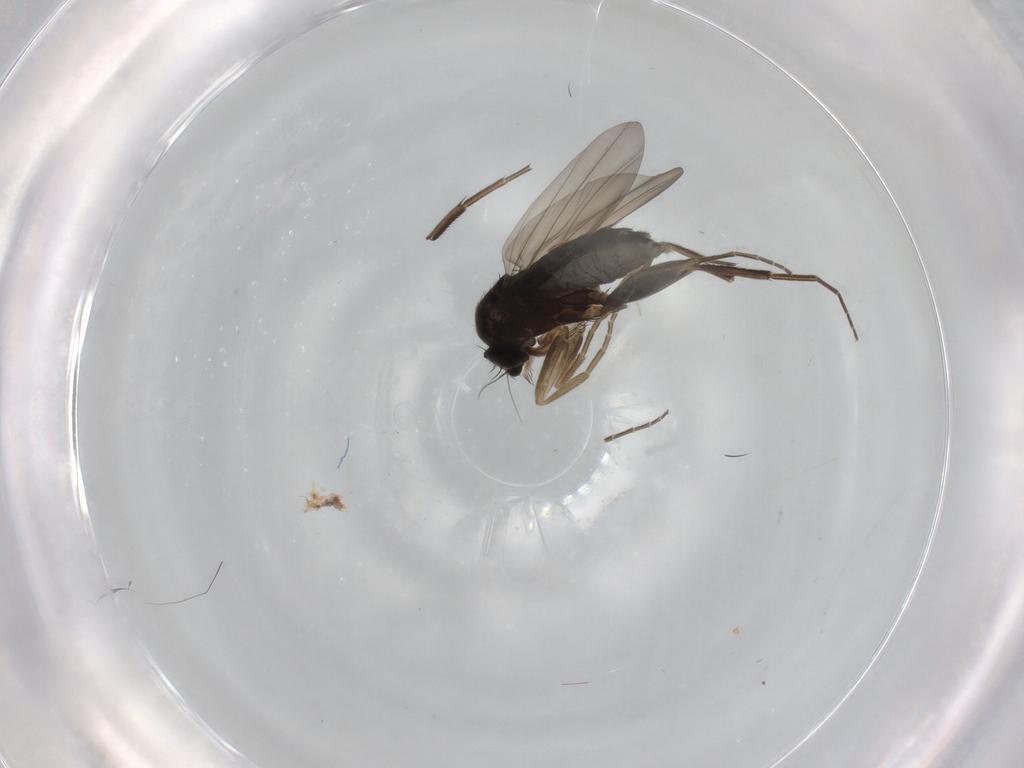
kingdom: Animalia
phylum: Arthropoda
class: Insecta
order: Diptera
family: Phoridae
